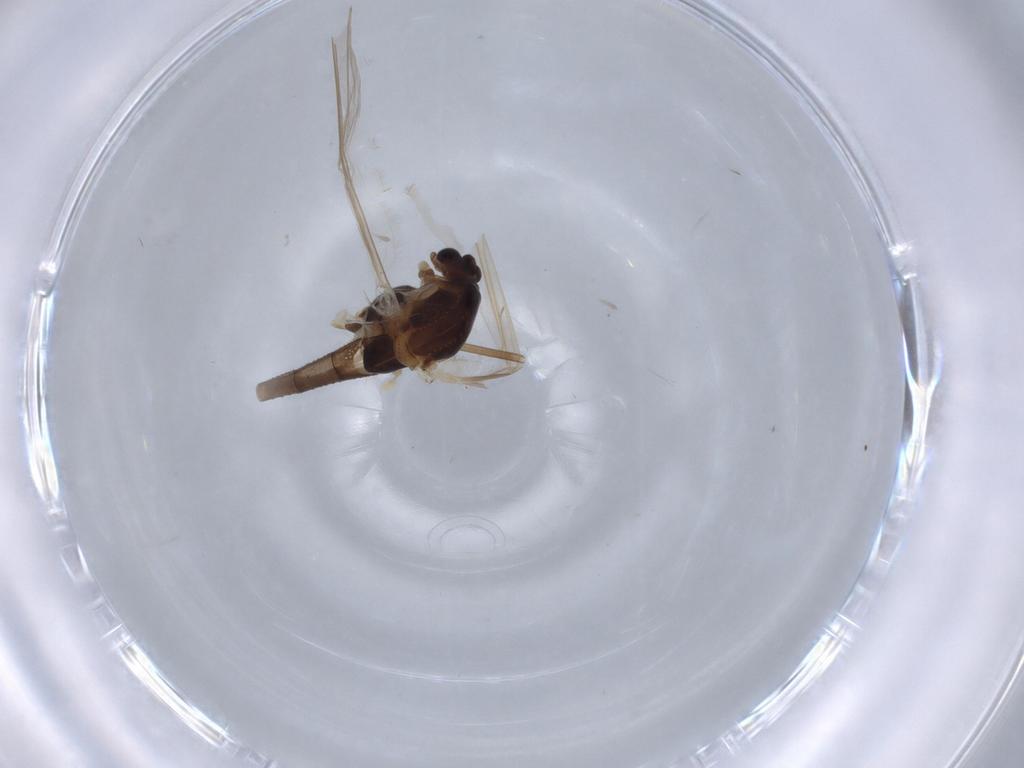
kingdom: Animalia
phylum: Arthropoda
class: Insecta
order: Diptera
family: Chironomidae
